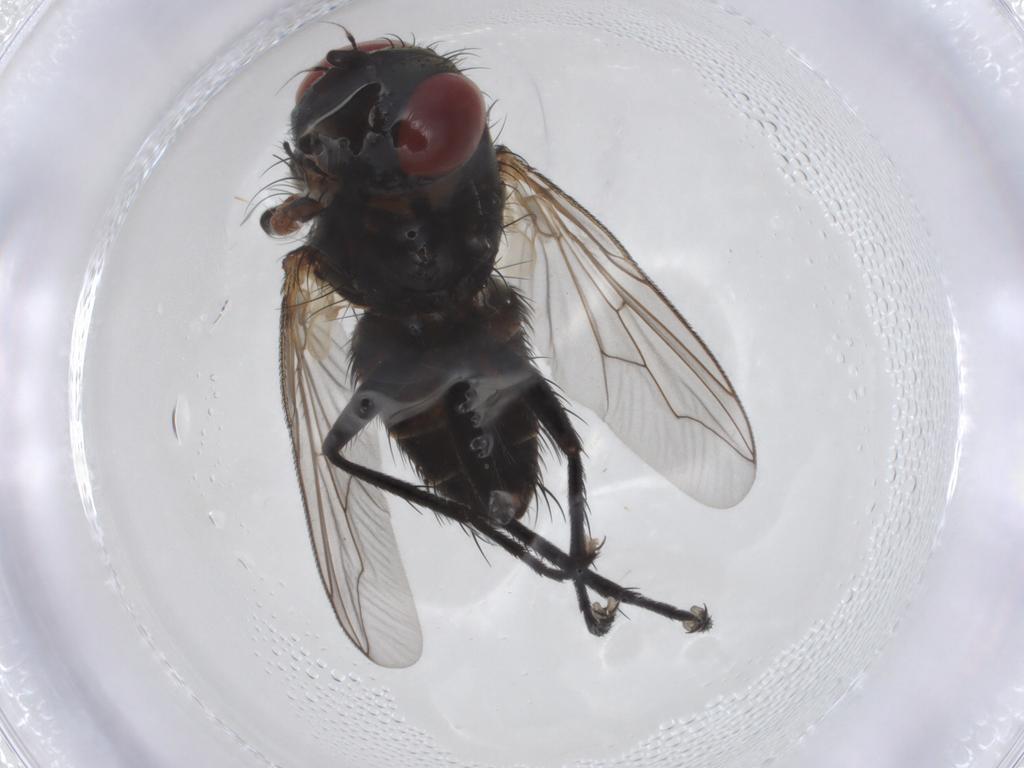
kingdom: Animalia
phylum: Arthropoda
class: Insecta
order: Diptera
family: Sarcophagidae
